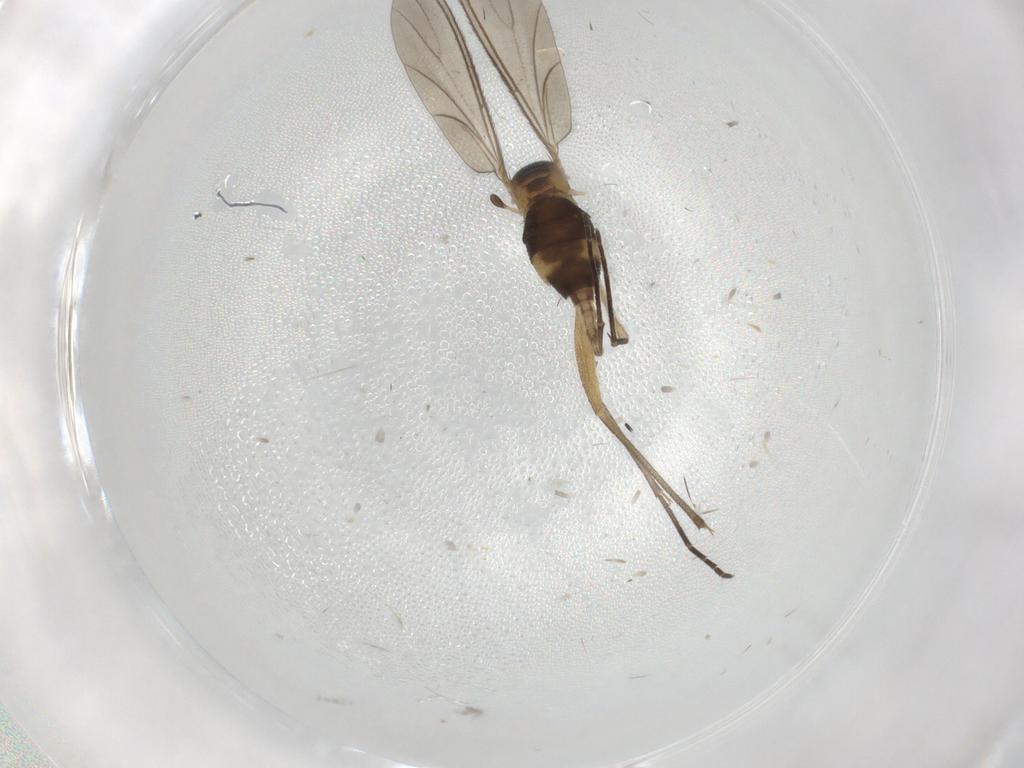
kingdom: Animalia
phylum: Arthropoda
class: Insecta
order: Diptera
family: Sciaridae
